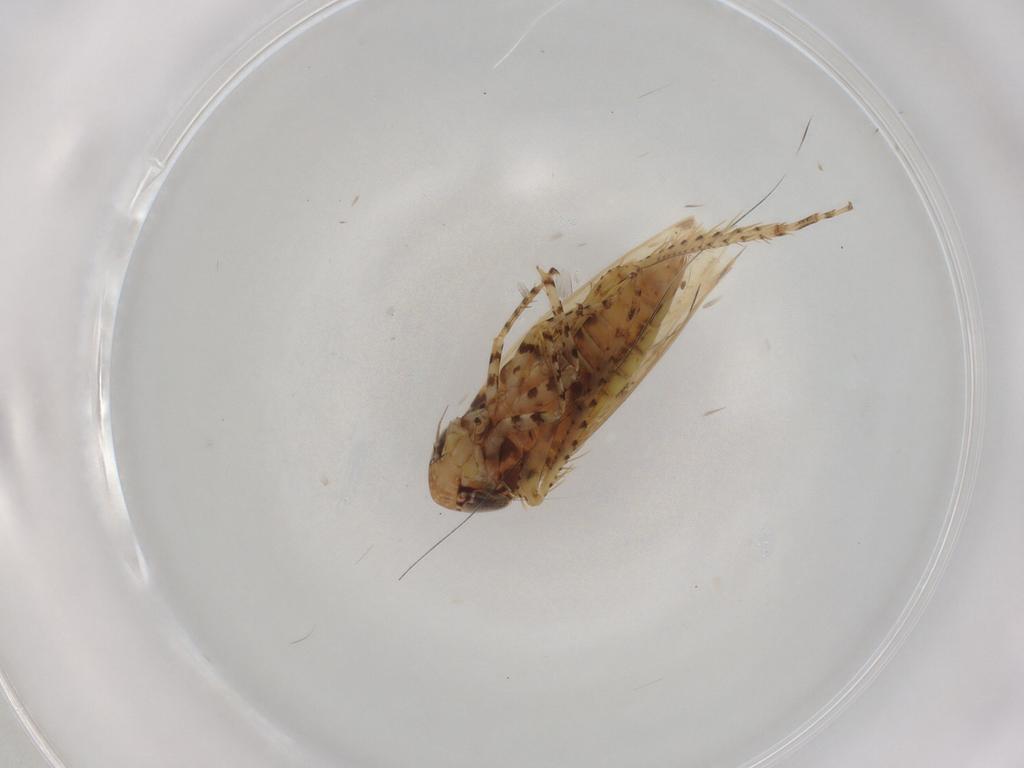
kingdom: Animalia
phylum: Arthropoda
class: Insecta
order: Hemiptera
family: Cicadellidae
